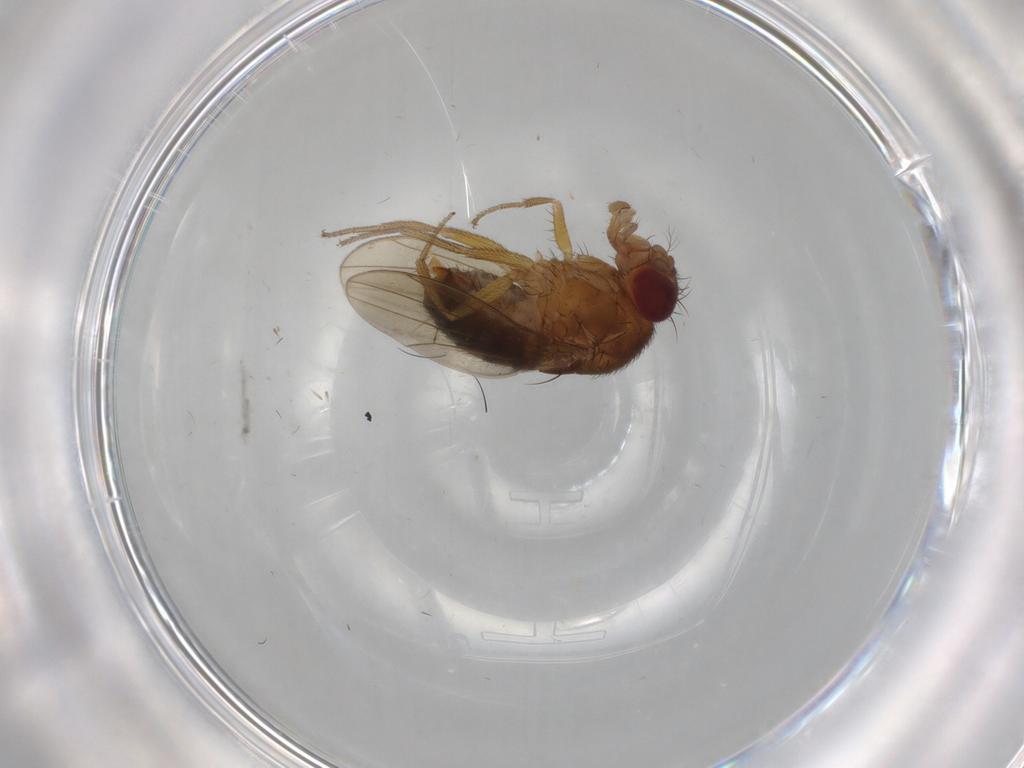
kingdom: Animalia
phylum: Arthropoda
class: Insecta
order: Diptera
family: Drosophilidae
